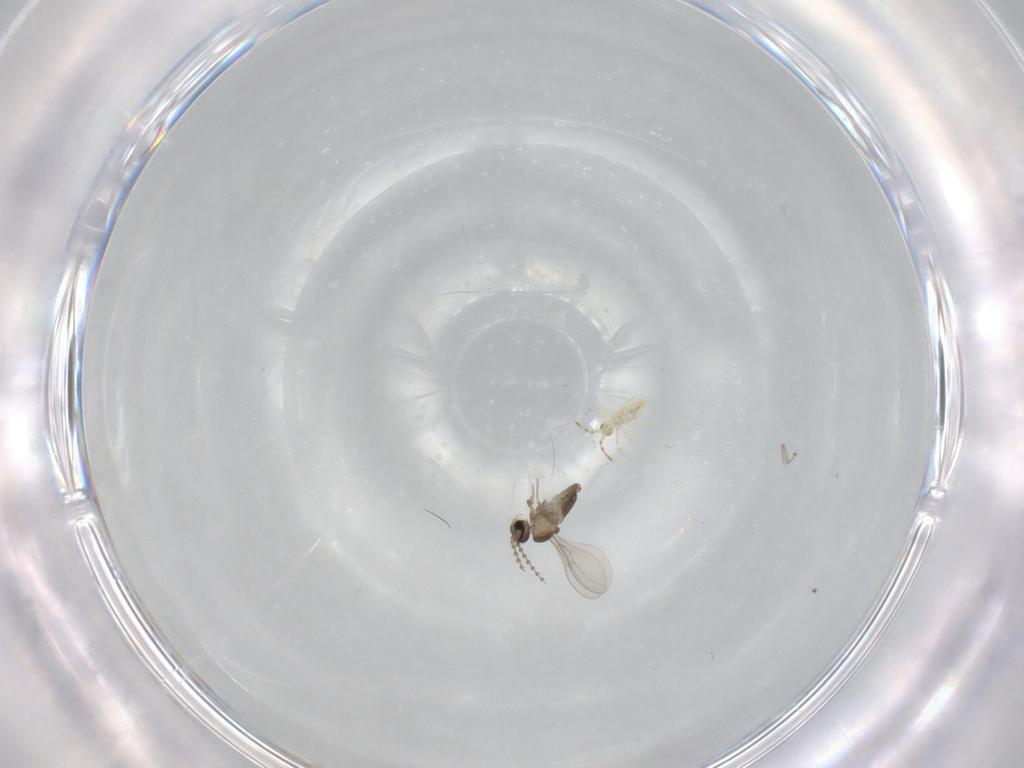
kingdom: Animalia
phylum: Arthropoda
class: Insecta
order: Diptera
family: Cecidomyiidae
